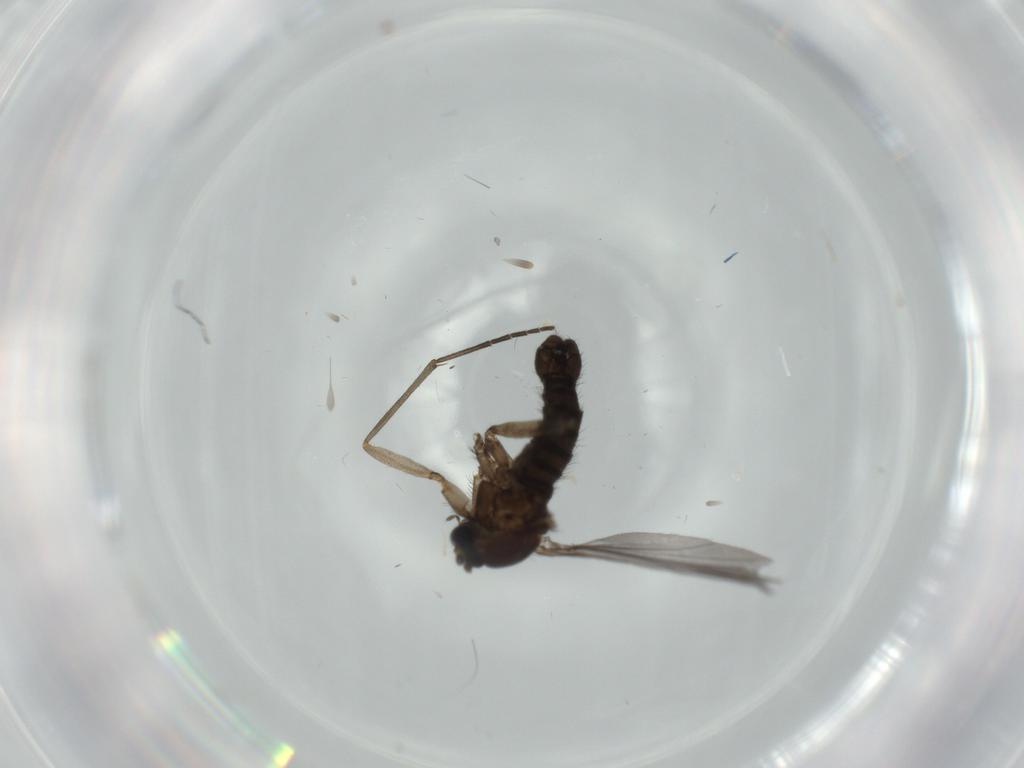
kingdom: Animalia
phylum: Arthropoda
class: Insecta
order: Diptera
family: Sciaridae
